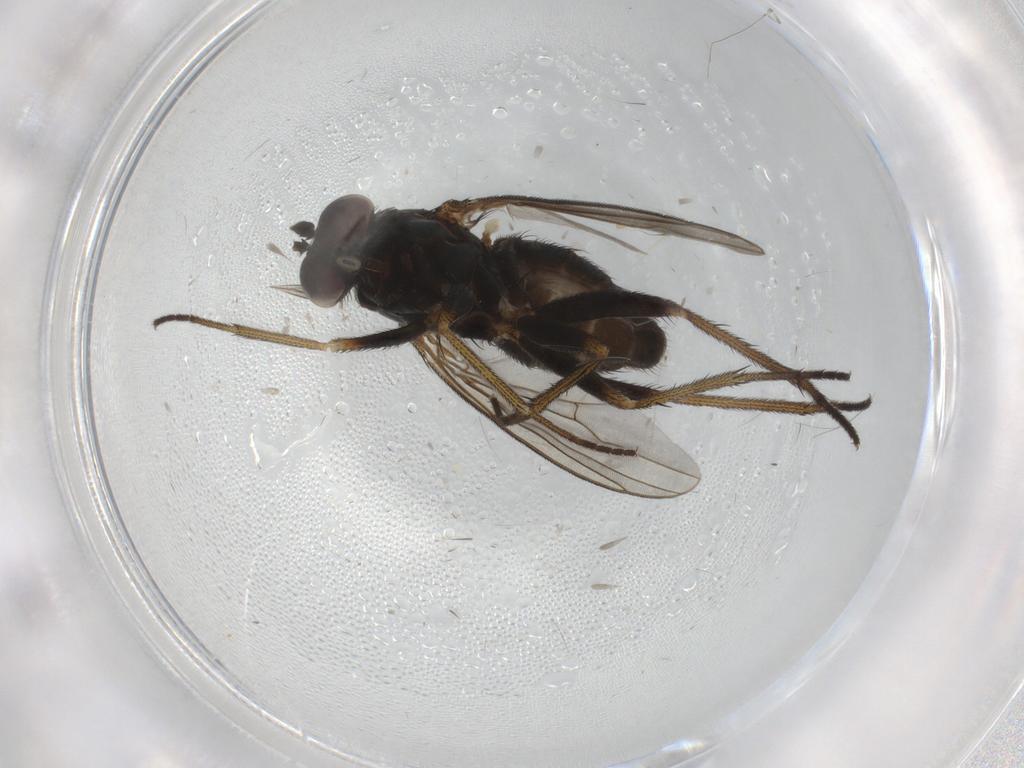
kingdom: Animalia
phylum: Arthropoda
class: Insecta
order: Diptera
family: Dolichopodidae
